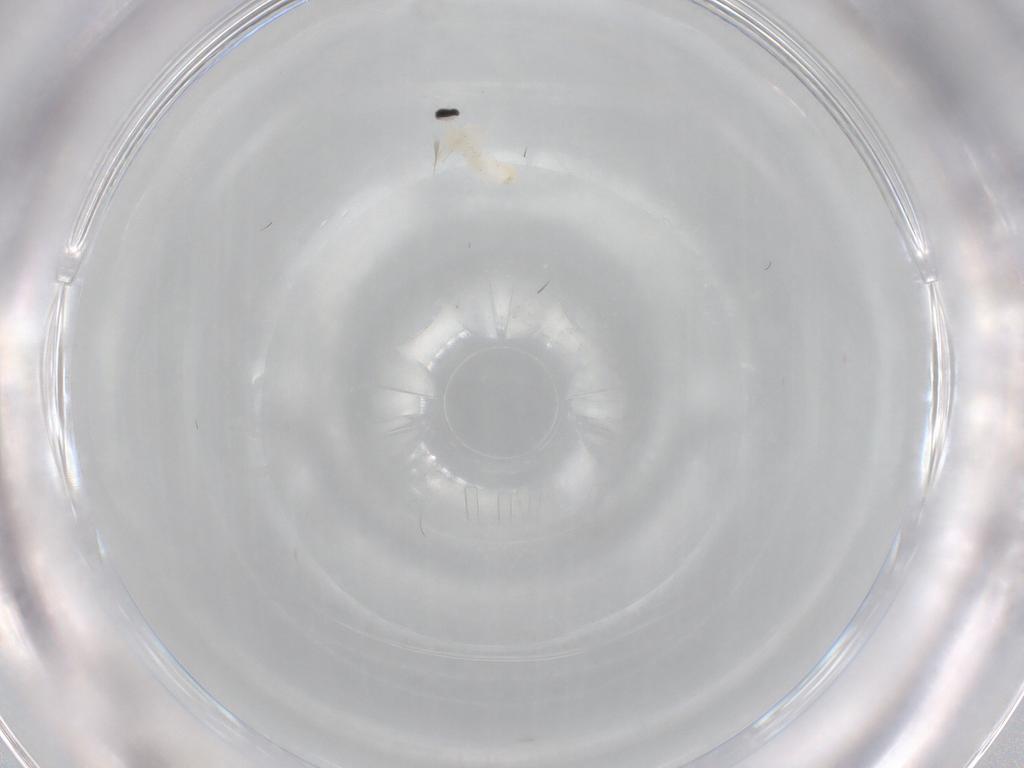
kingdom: Animalia
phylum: Arthropoda
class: Insecta
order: Diptera
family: Cecidomyiidae
